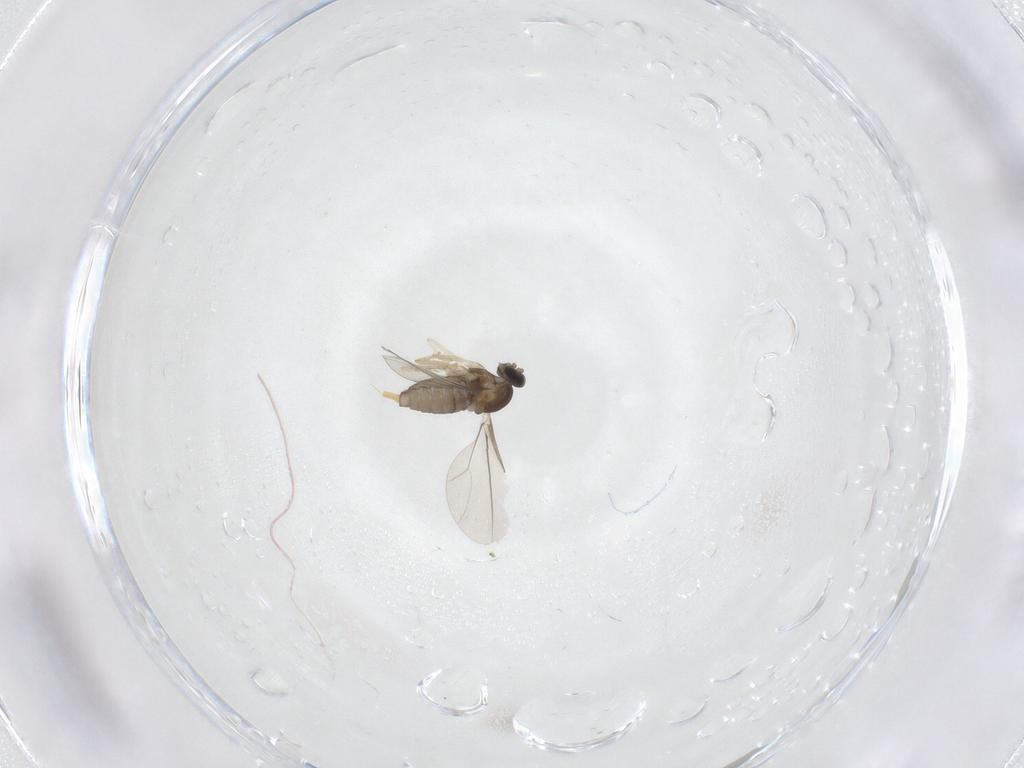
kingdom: Animalia
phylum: Arthropoda
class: Insecta
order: Diptera
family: Cecidomyiidae
